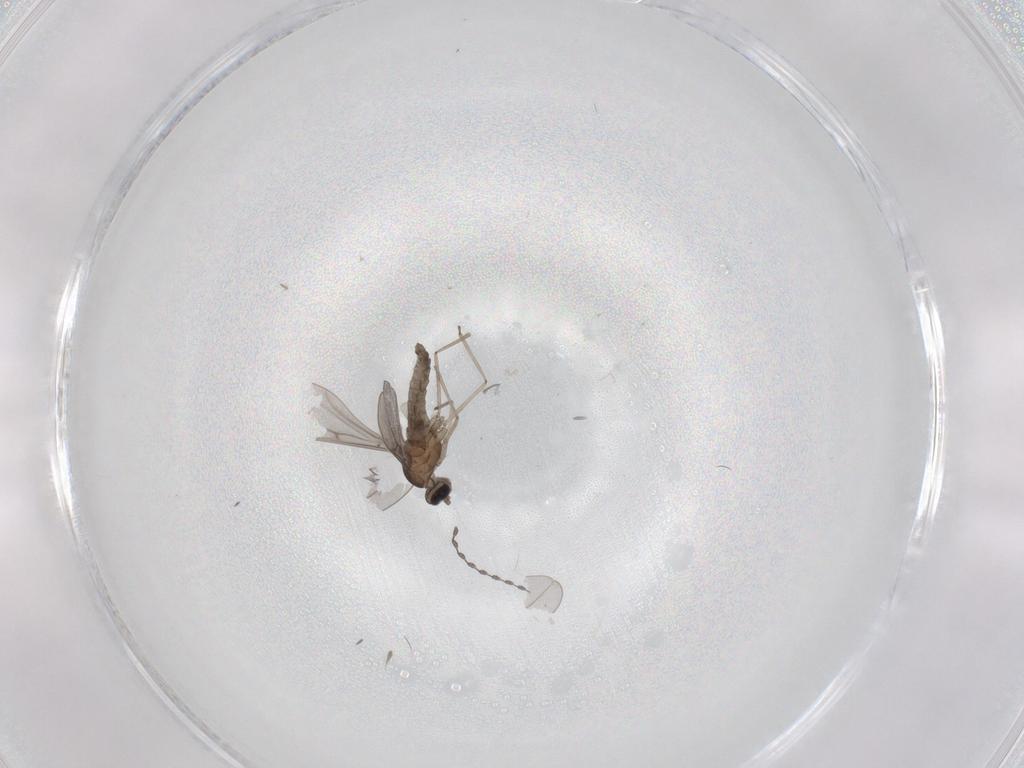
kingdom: Animalia
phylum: Arthropoda
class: Insecta
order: Diptera
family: Cecidomyiidae
